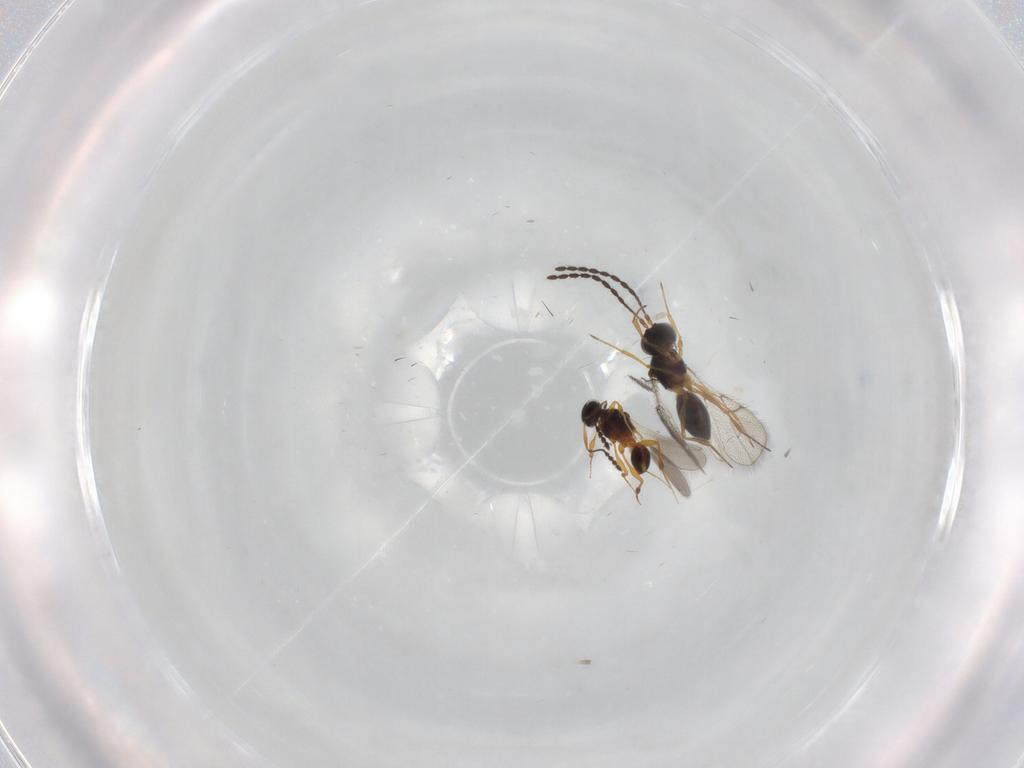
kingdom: Animalia
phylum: Arthropoda
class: Insecta
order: Hymenoptera
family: Platygastridae
